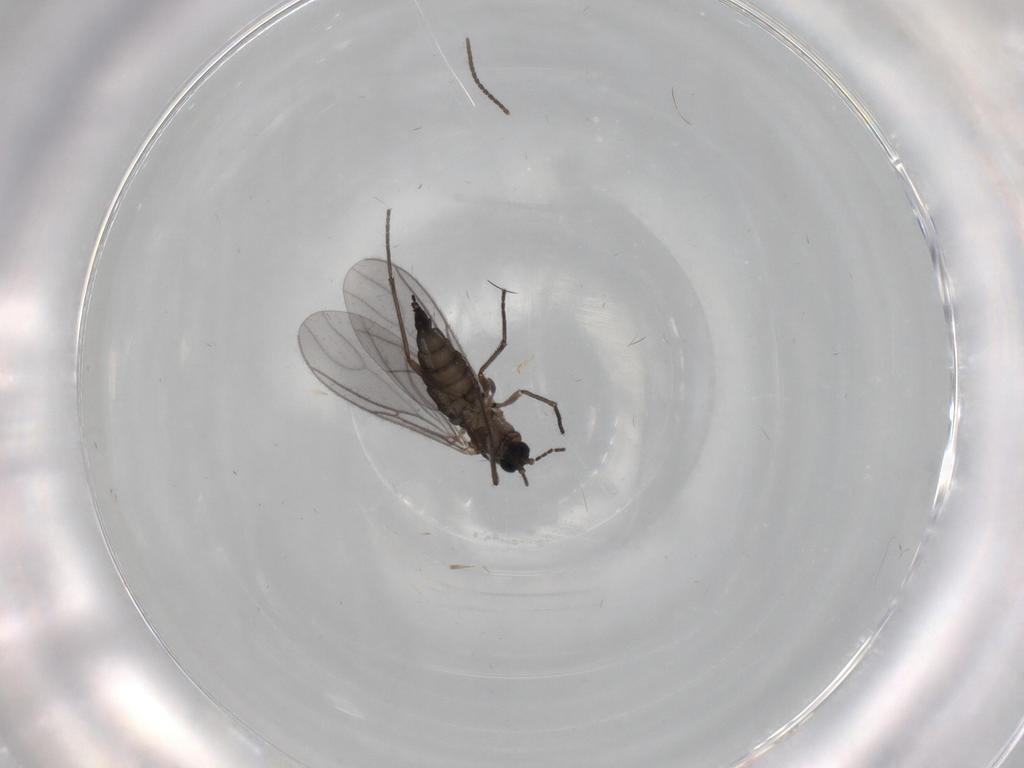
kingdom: Animalia
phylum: Arthropoda
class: Insecta
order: Diptera
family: Sciaridae
